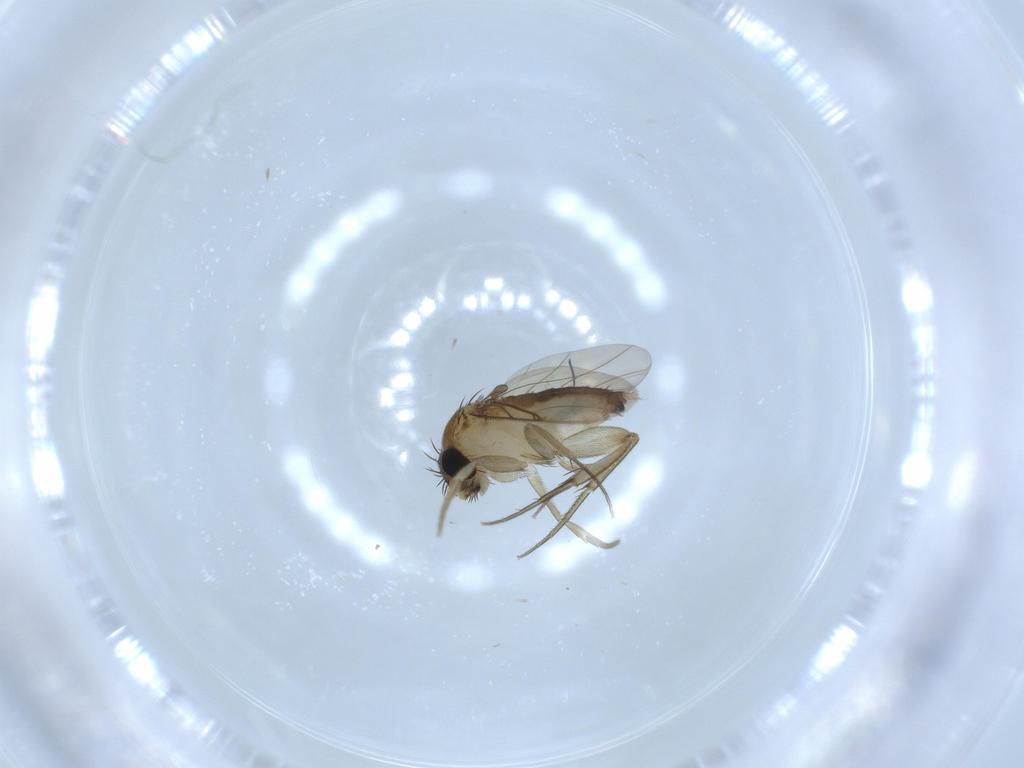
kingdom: Animalia
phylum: Arthropoda
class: Insecta
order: Diptera
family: Phoridae
